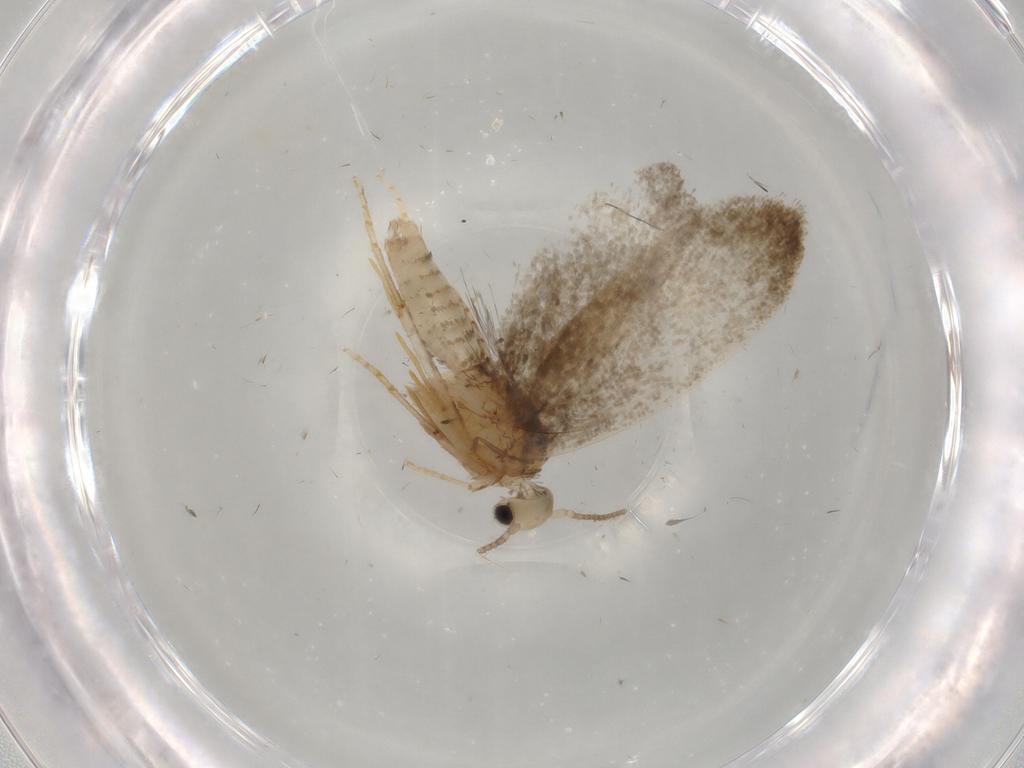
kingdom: Animalia
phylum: Arthropoda
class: Insecta
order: Lepidoptera
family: Psychidae
